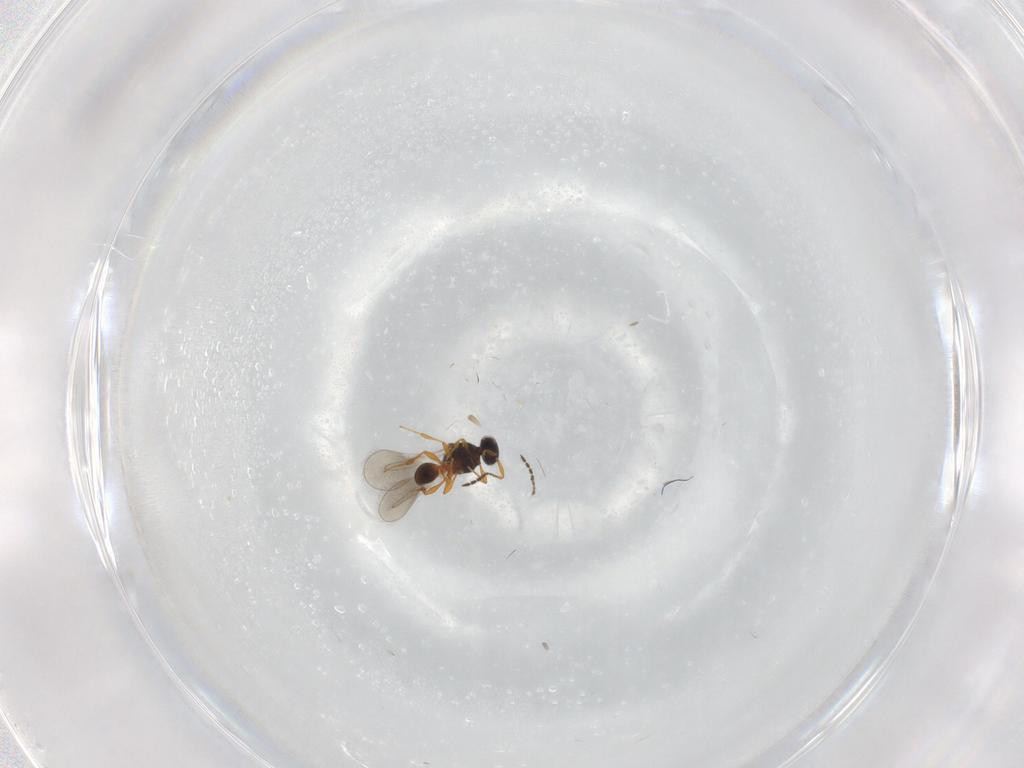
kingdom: Animalia
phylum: Arthropoda
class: Insecta
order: Hymenoptera
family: Platygastridae
